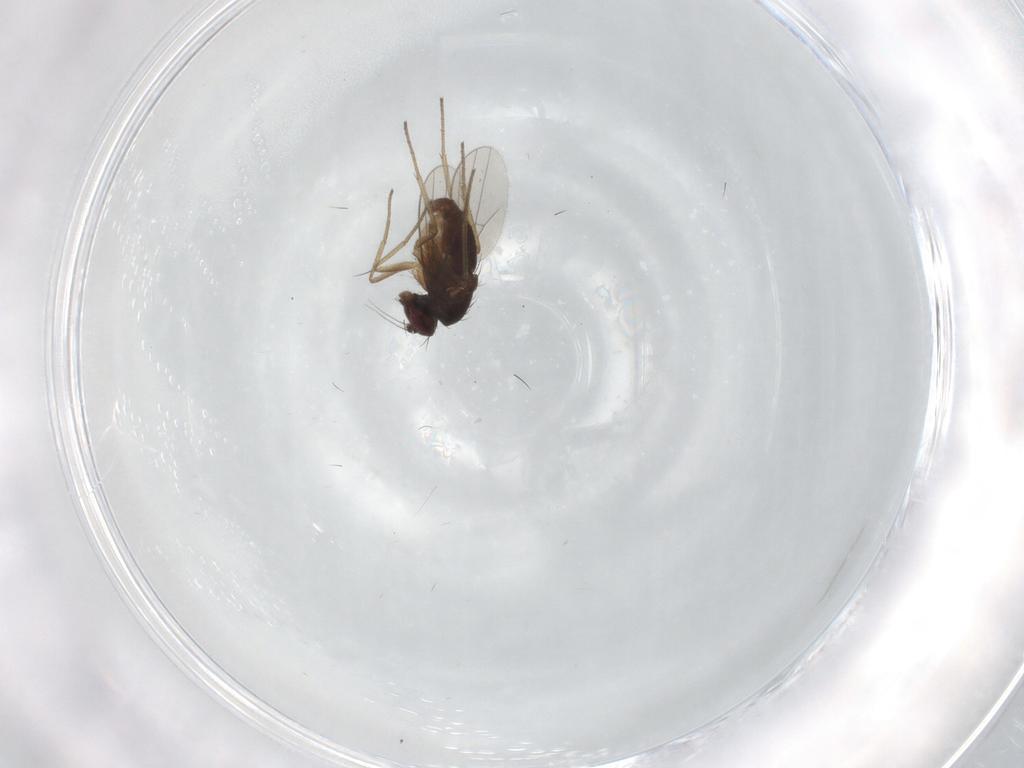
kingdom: Animalia
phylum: Arthropoda
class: Insecta
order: Diptera
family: Dolichopodidae
